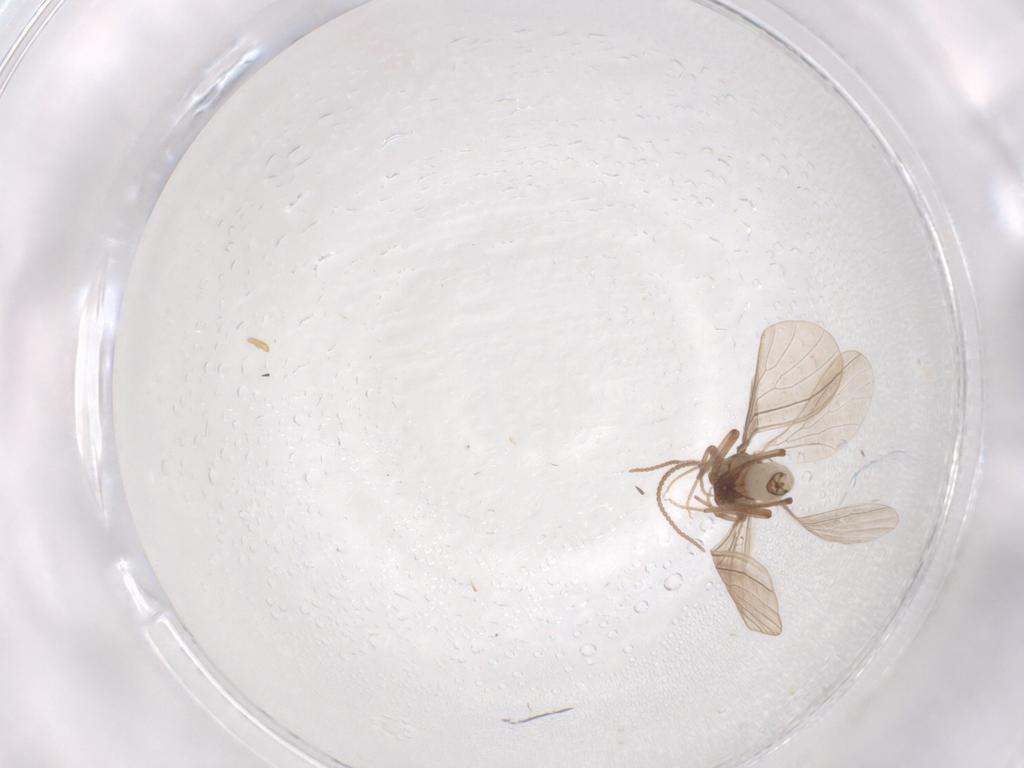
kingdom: Animalia
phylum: Arthropoda
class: Insecta
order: Neuroptera
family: Coniopterygidae
